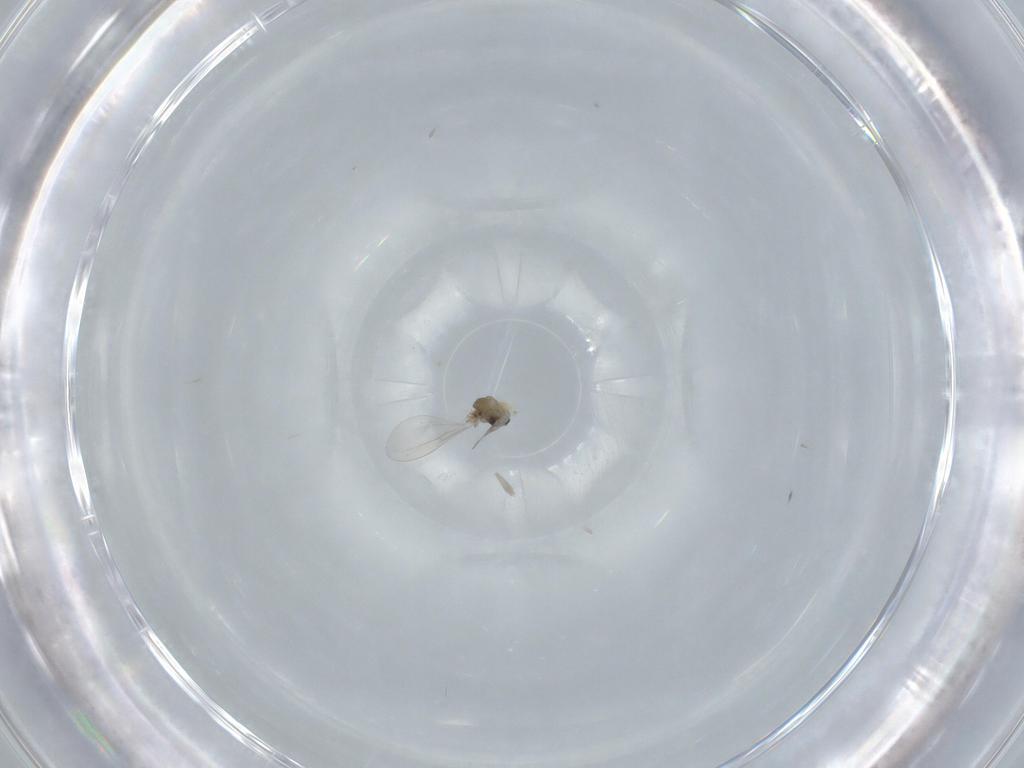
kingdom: Animalia
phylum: Arthropoda
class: Insecta
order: Diptera
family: Cecidomyiidae
